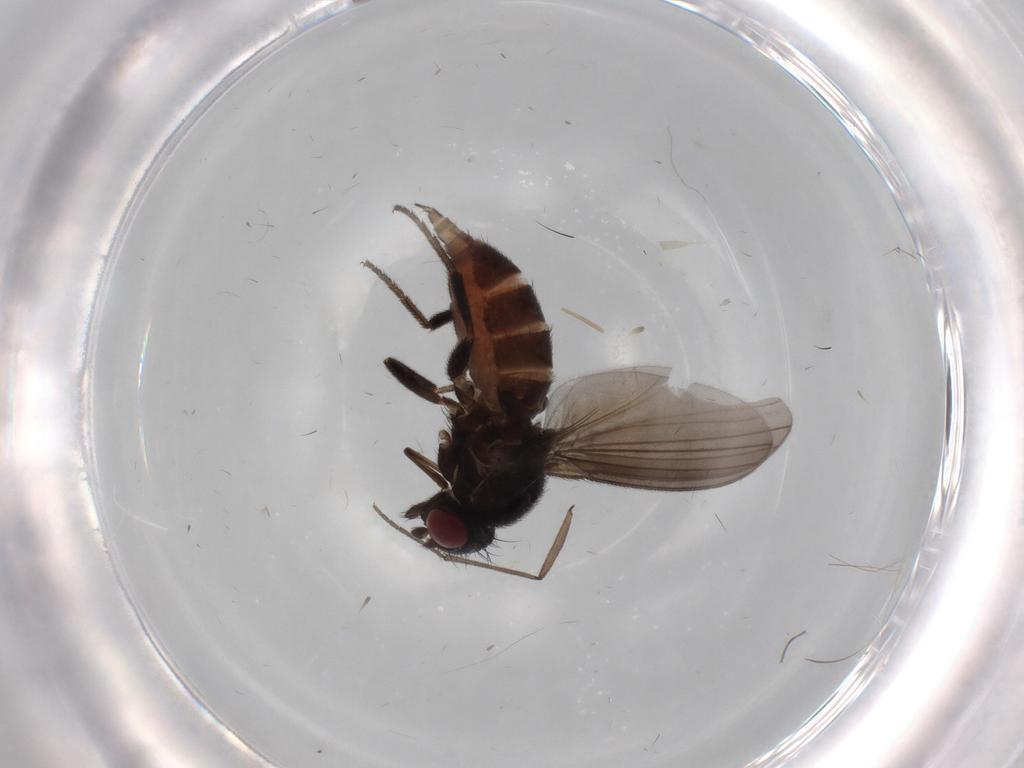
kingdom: Animalia
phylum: Arthropoda
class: Insecta
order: Diptera
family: Milichiidae
